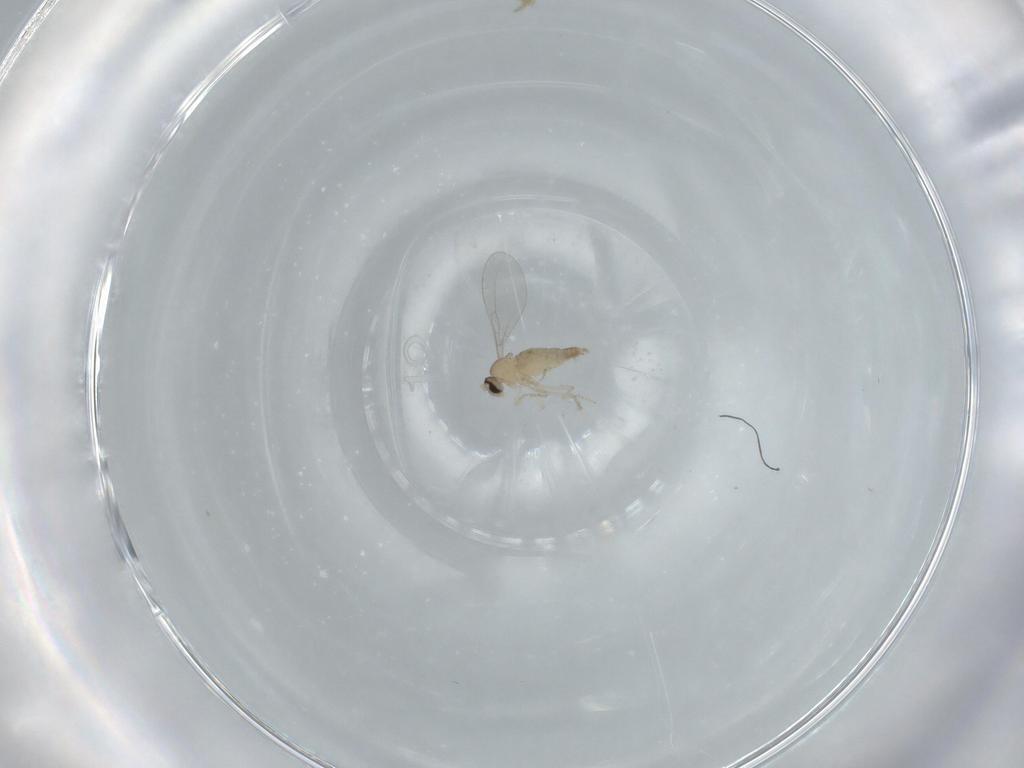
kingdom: Animalia
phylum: Arthropoda
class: Insecta
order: Diptera
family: Cecidomyiidae
